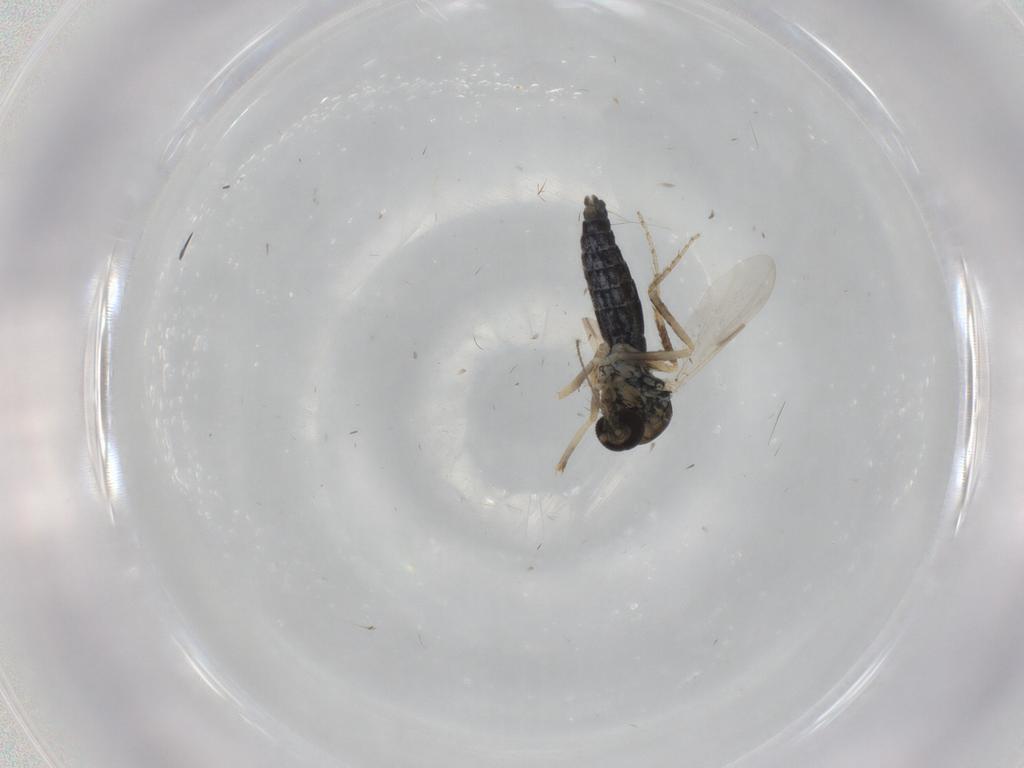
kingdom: Animalia
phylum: Arthropoda
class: Insecta
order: Diptera
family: Ceratopogonidae
